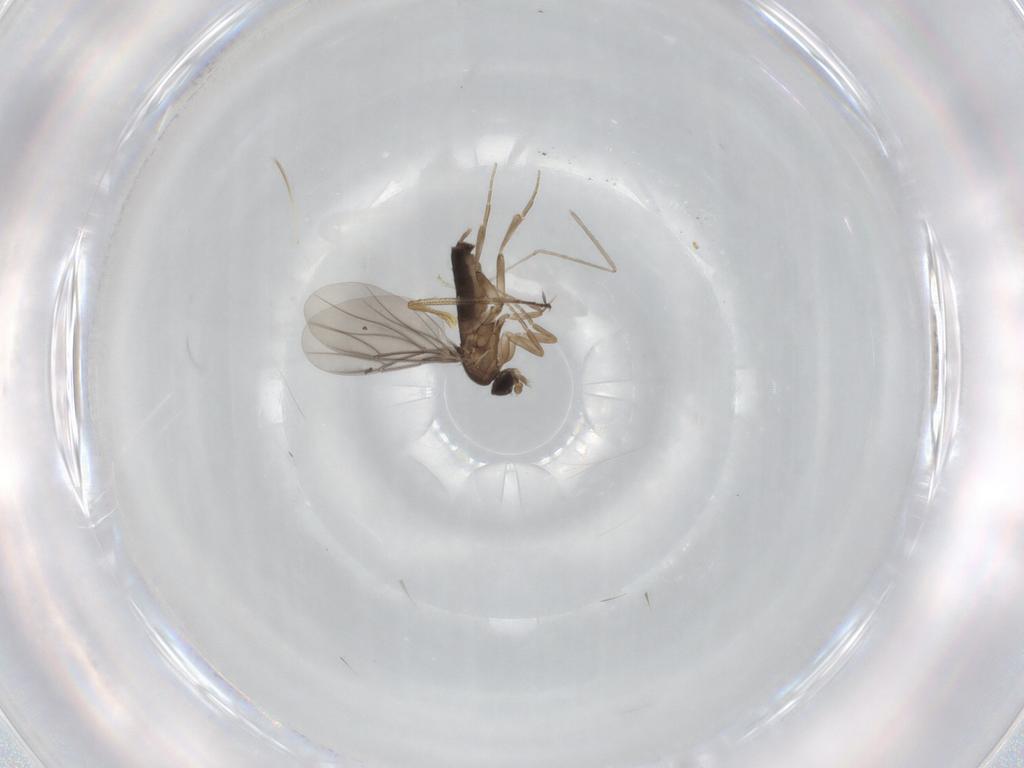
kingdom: Animalia
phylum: Arthropoda
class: Insecta
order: Diptera
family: Cecidomyiidae
